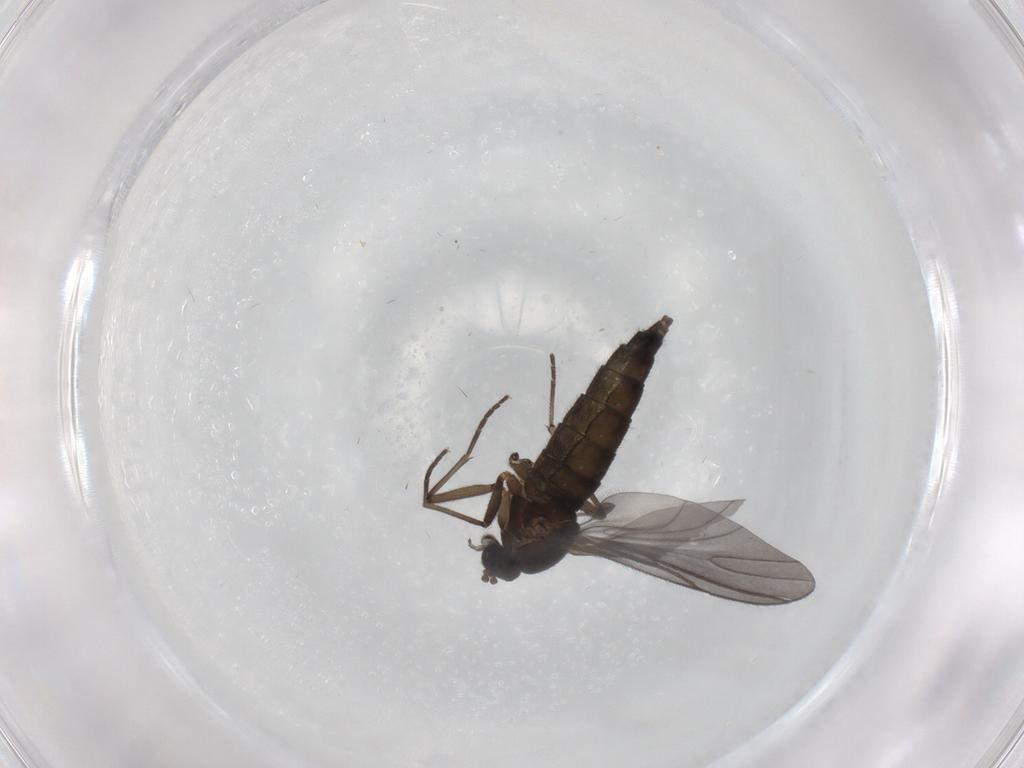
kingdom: Animalia
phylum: Arthropoda
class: Insecta
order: Diptera
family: Sciaridae
